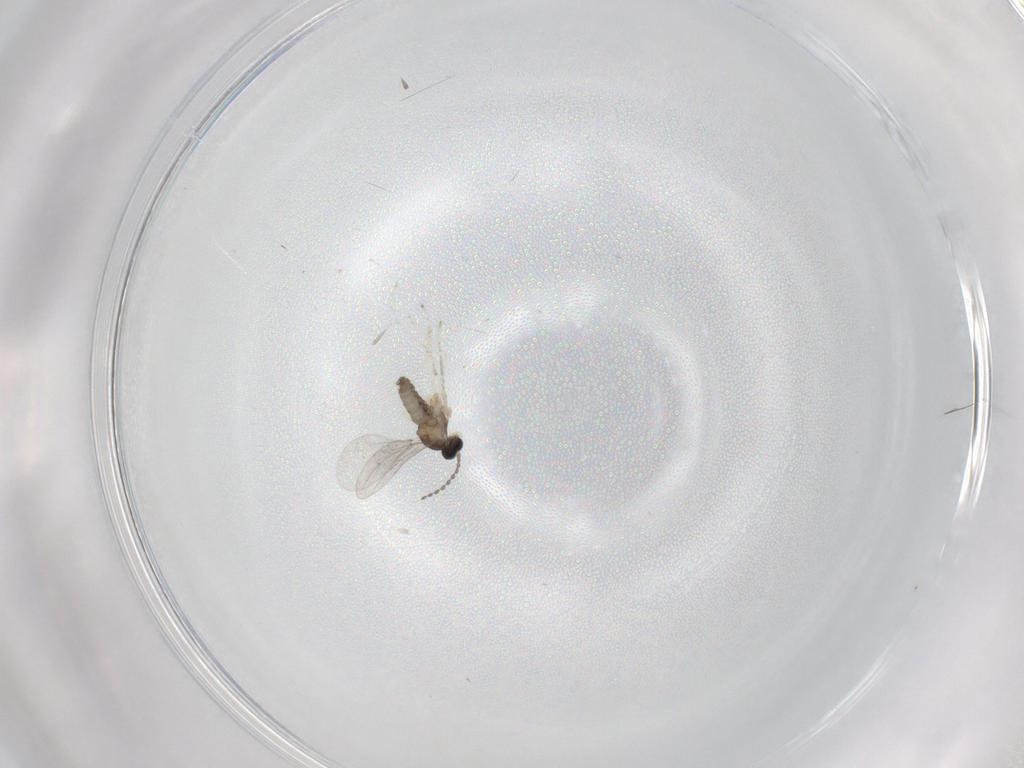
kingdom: Animalia
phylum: Arthropoda
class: Insecta
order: Diptera
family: Cecidomyiidae
